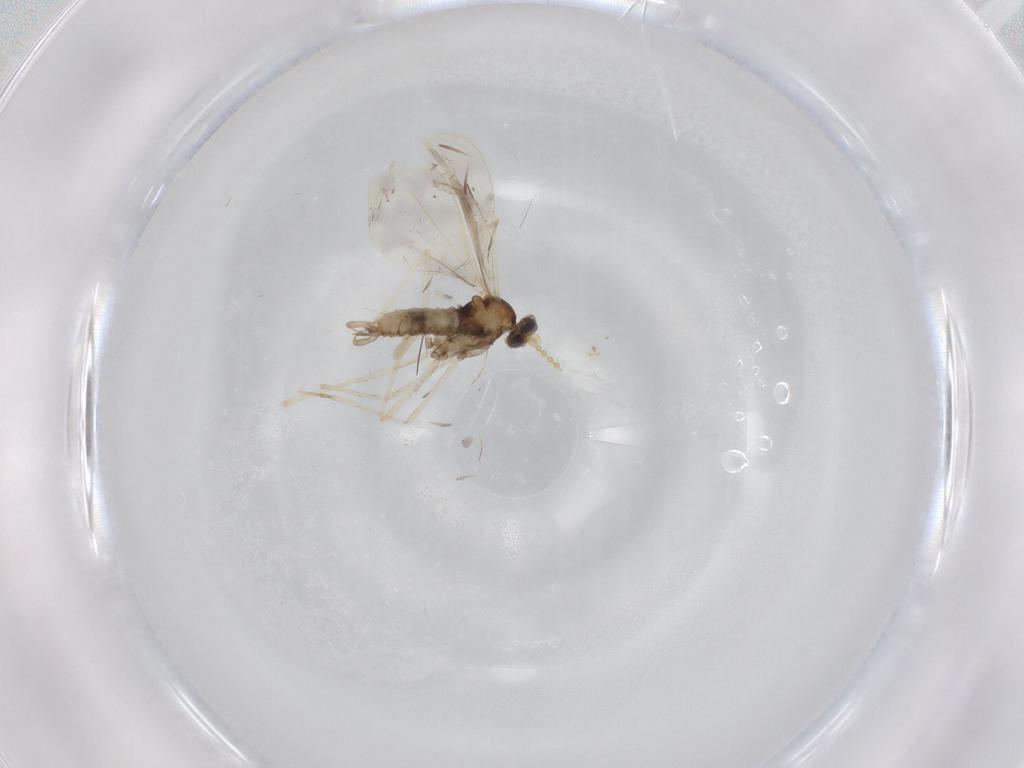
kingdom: Animalia
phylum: Arthropoda
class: Insecta
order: Diptera
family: Cecidomyiidae
